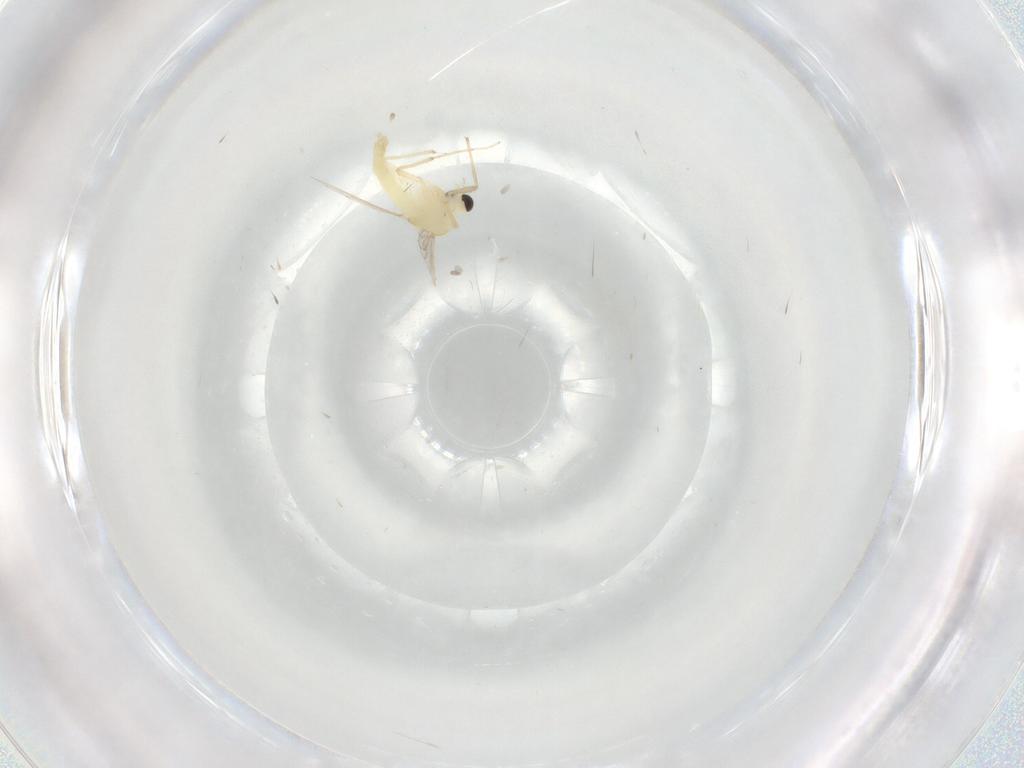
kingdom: Animalia
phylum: Arthropoda
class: Insecta
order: Diptera
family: Chironomidae
